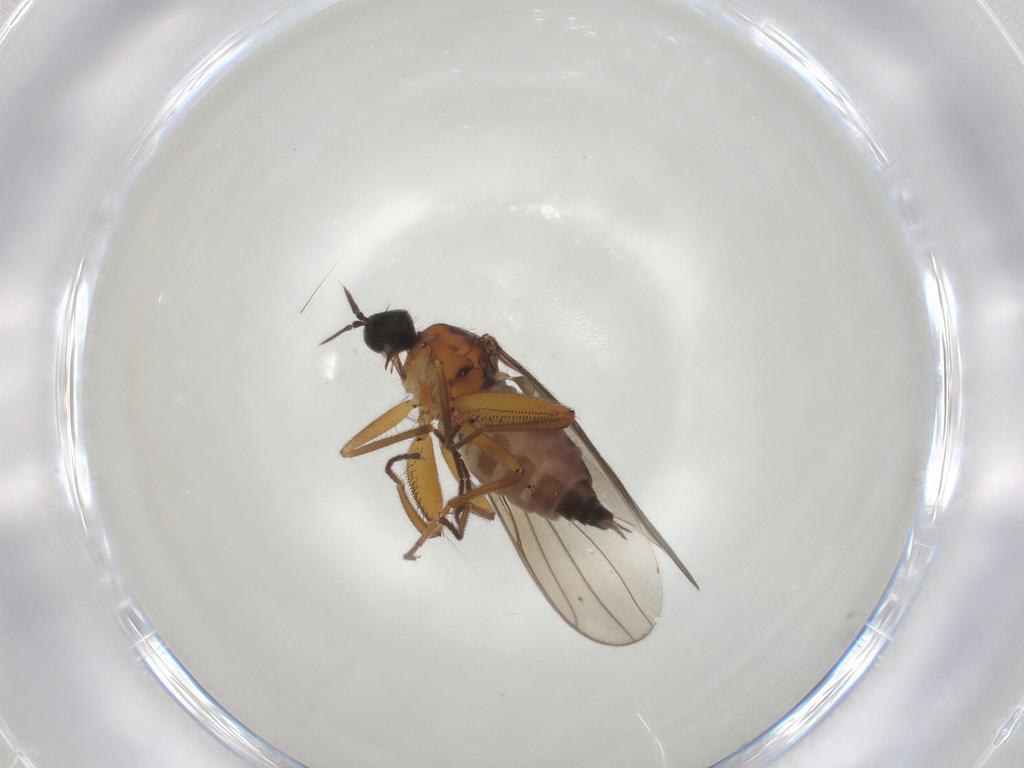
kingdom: Animalia
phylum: Arthropoda
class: Insecta
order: Diptera
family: Hybotidae
